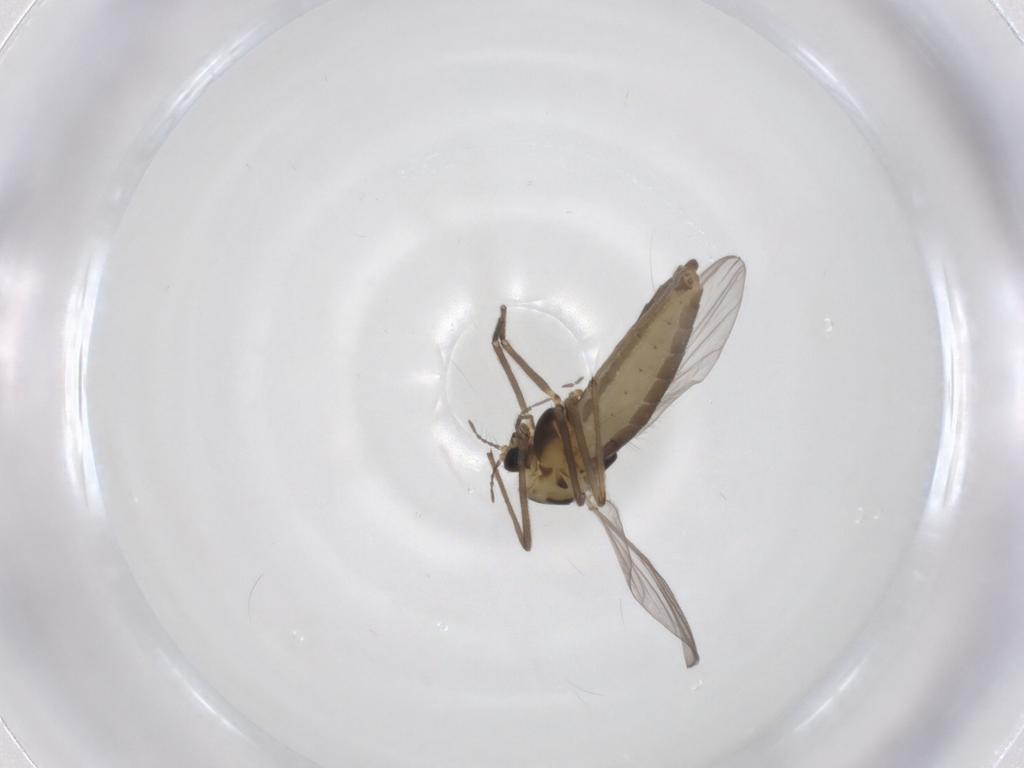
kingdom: Animalia
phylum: Arthropoda
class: Insecta
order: Diptera
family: Chironomidae
